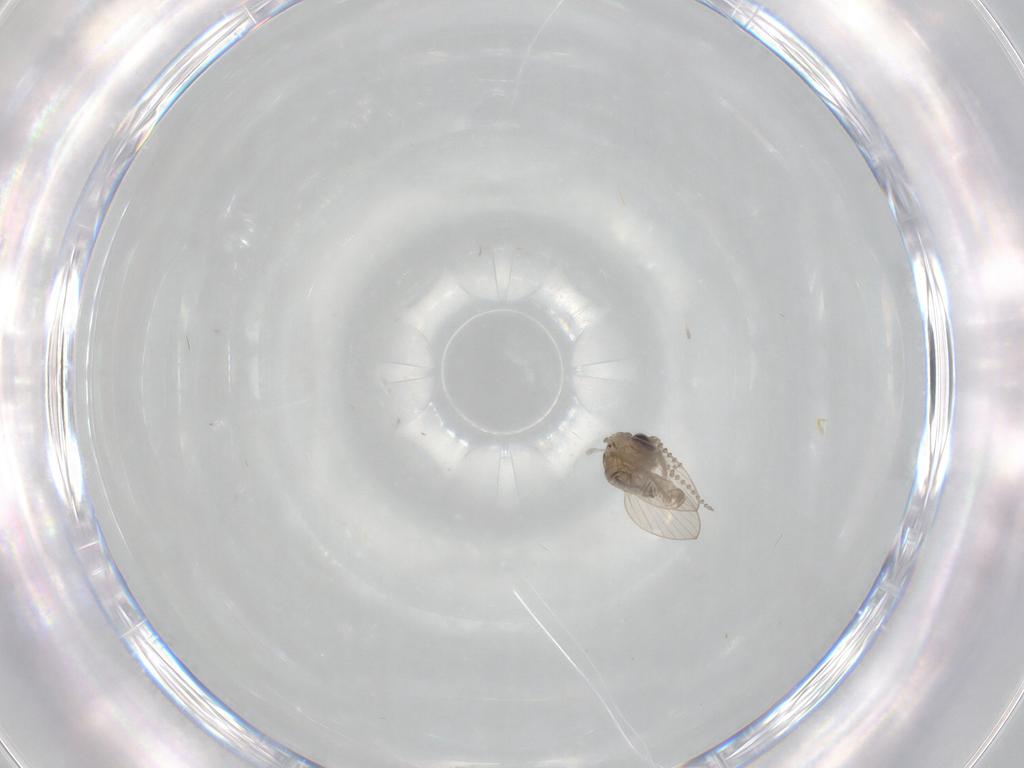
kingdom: Animalia
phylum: Arthropoda
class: Insecta
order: Diptera
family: Psychodidae
